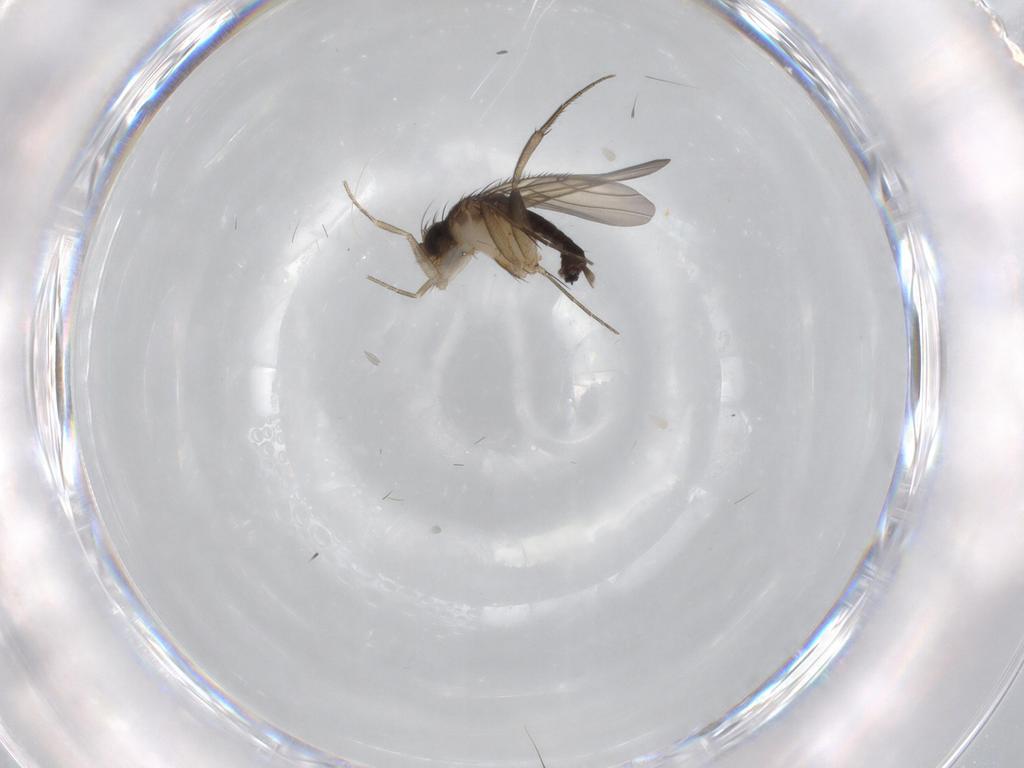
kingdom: Animalia
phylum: Arthropoda
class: Insecta
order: Diptera
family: Phoridae
